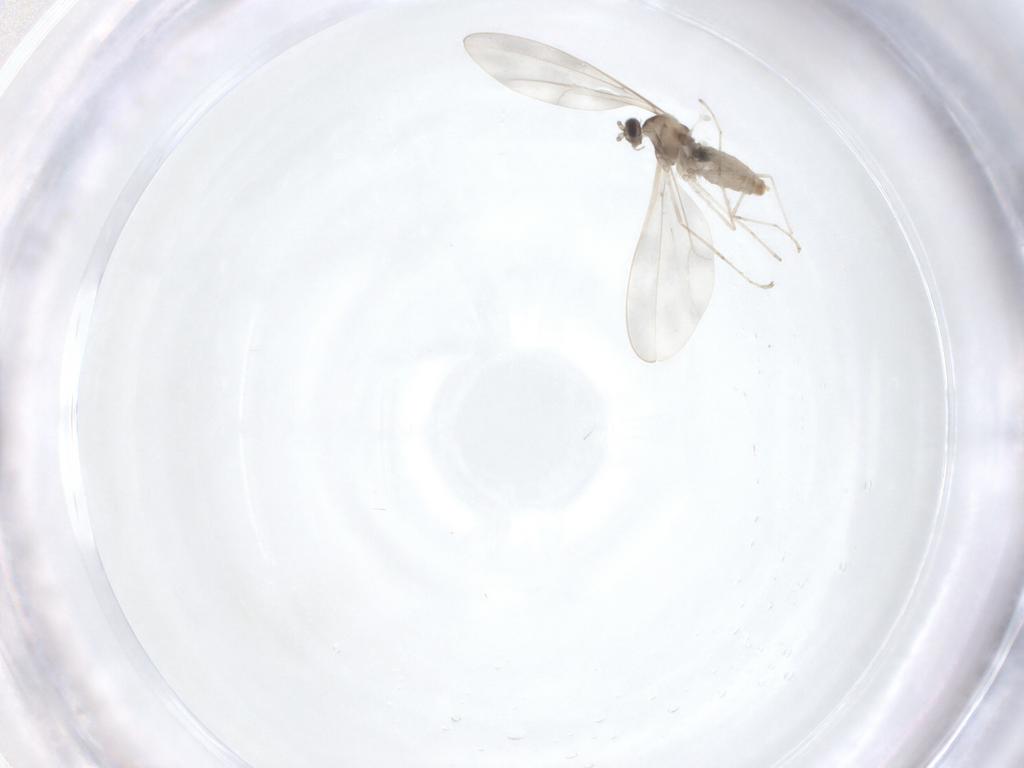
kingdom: Animalia
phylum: Arthropoda
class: Insecta
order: Diptera
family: Cecidomyiidae
